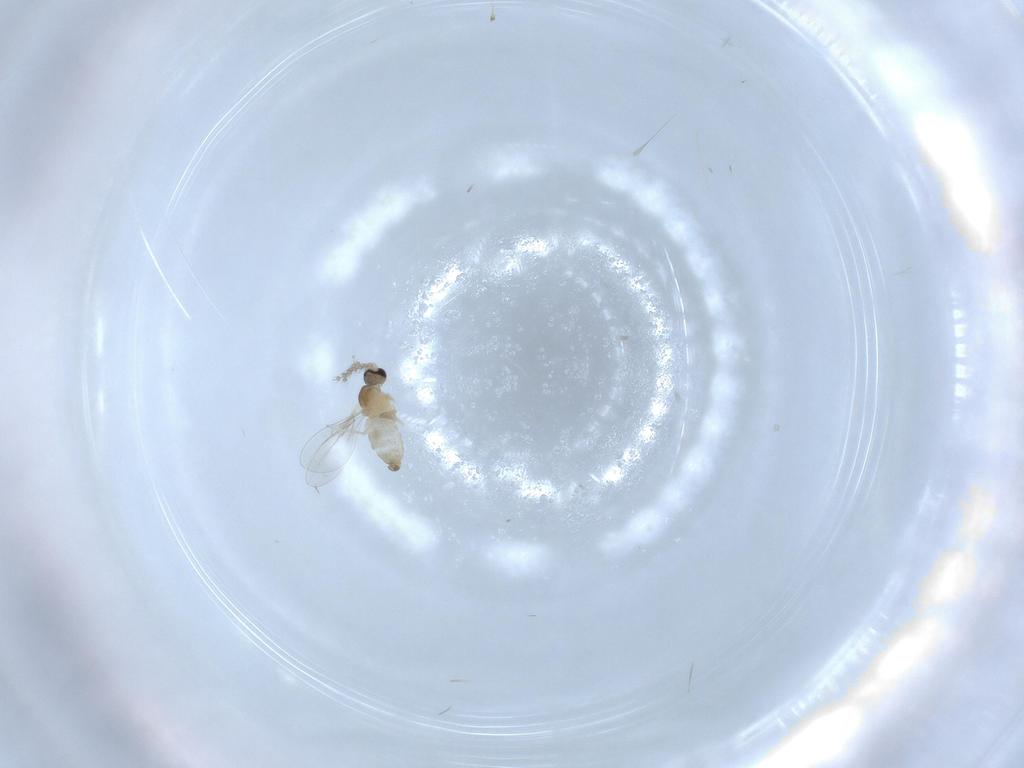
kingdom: Animalia
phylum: Arthropoda
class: Insecta
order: Diptera
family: Cecidomyiidae
